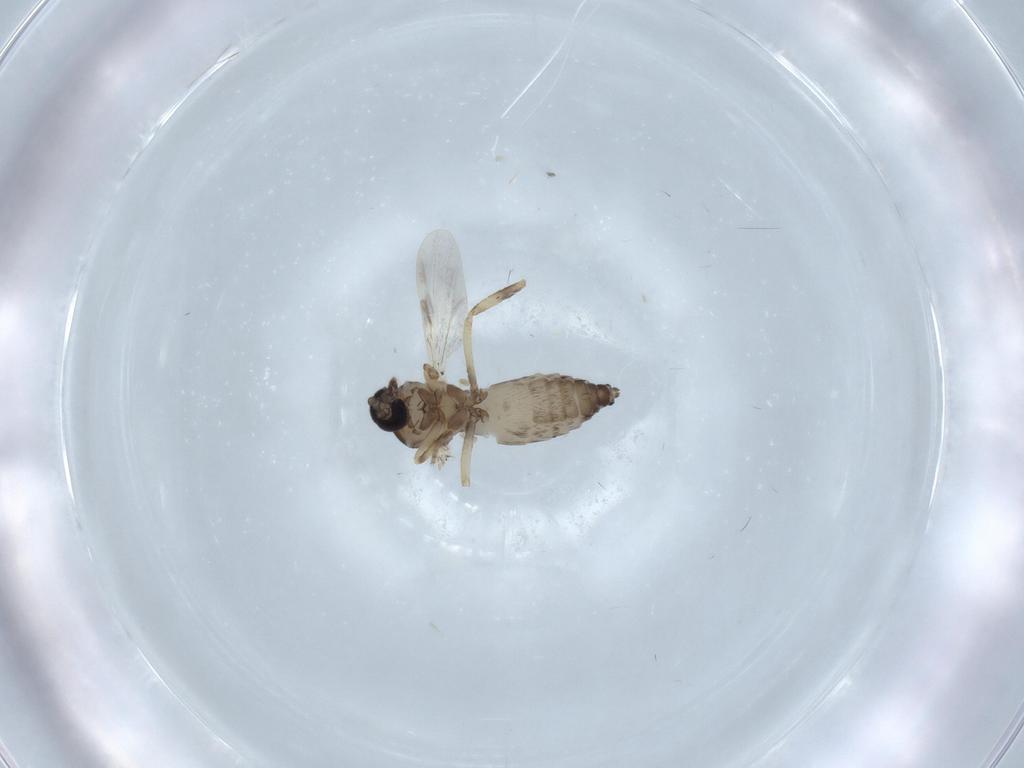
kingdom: Animalia
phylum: Arthropoda
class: Insecta
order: Diptera
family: Ceratopogonidae
